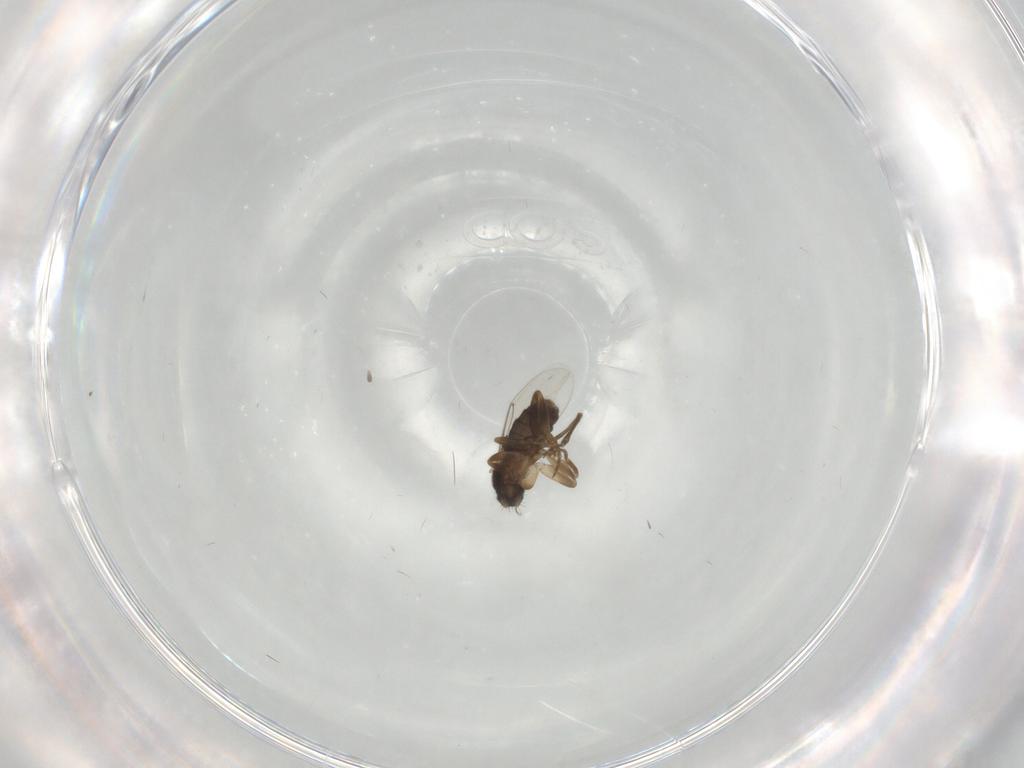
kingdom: Animalia
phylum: Arthropoda
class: Insecta
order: Diptera
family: Phoridae
